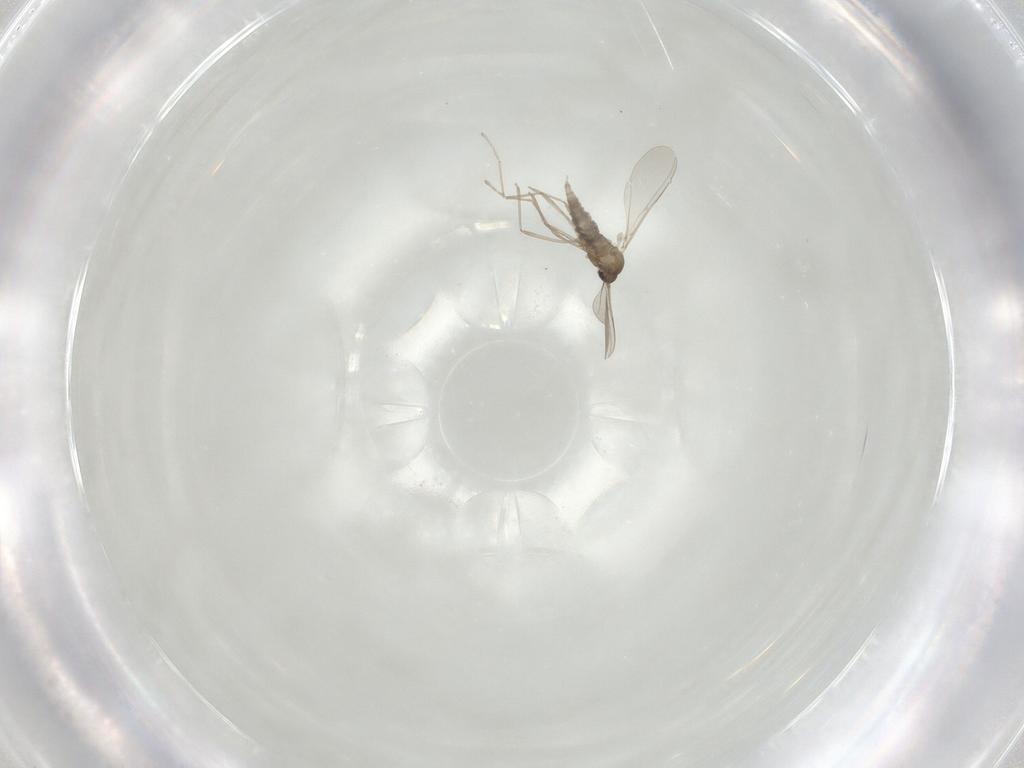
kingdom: Animalia
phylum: Arthropoda
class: Insecta
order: Diptera
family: Cecidomyiidae
